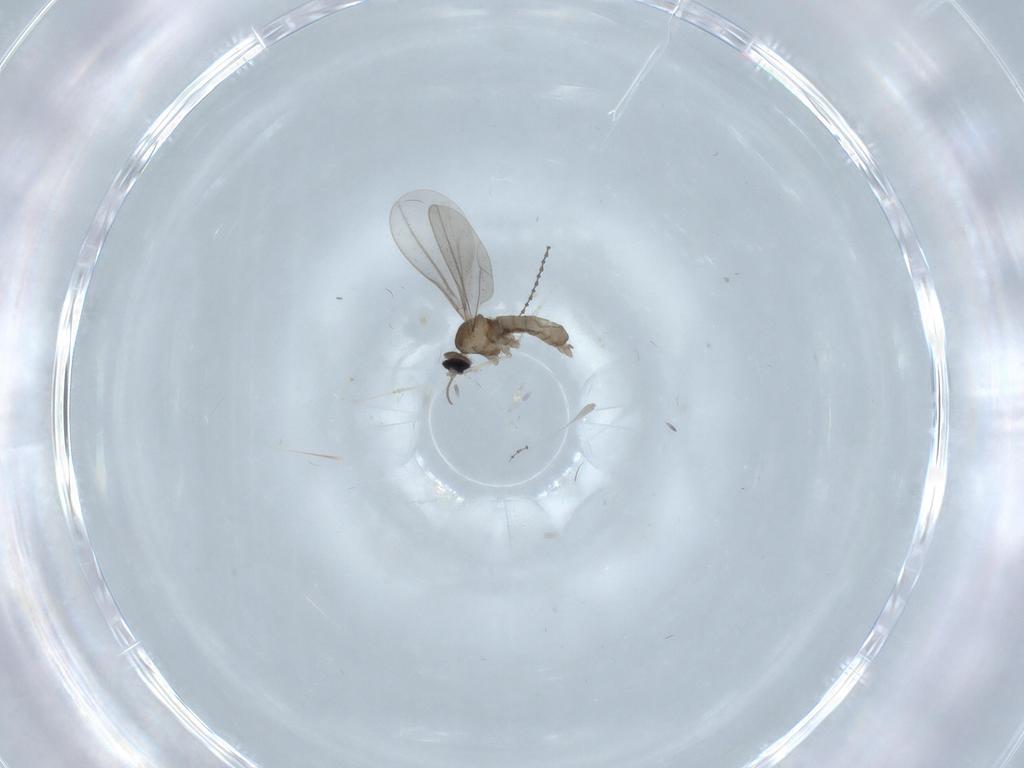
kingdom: Animalia
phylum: Arthropoda
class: Insecta
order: Diptera
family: Cecidomyiidae
